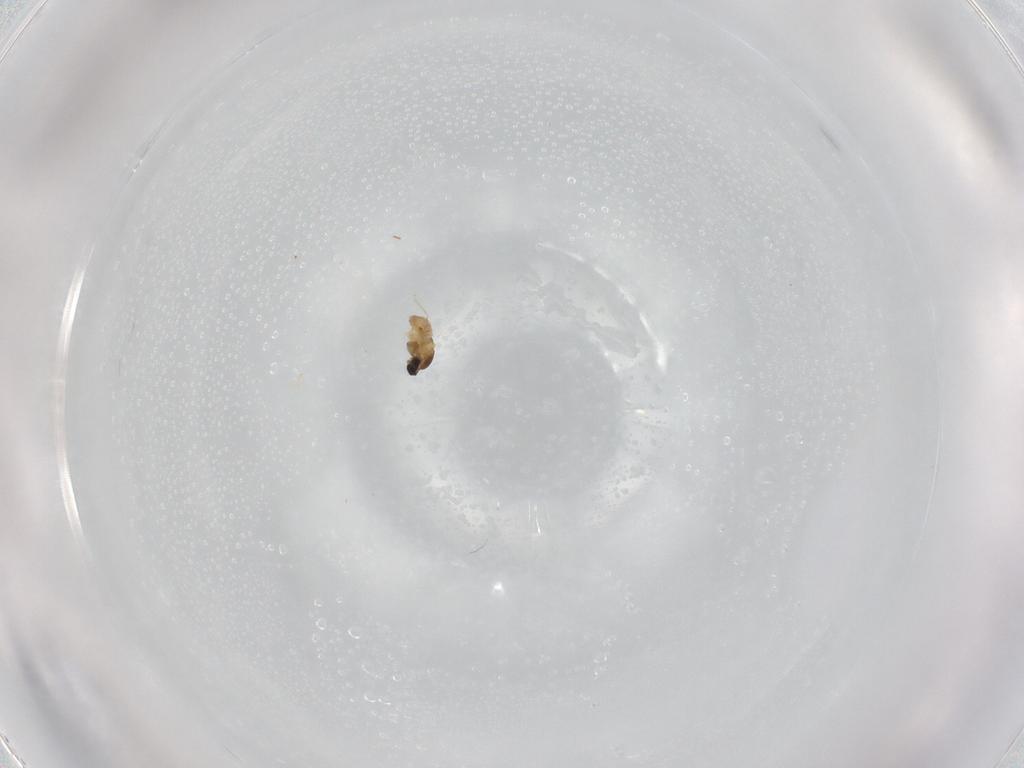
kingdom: Animalia
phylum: Arthropoda
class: Insecta
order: Diptera
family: Cecidomyiidae
